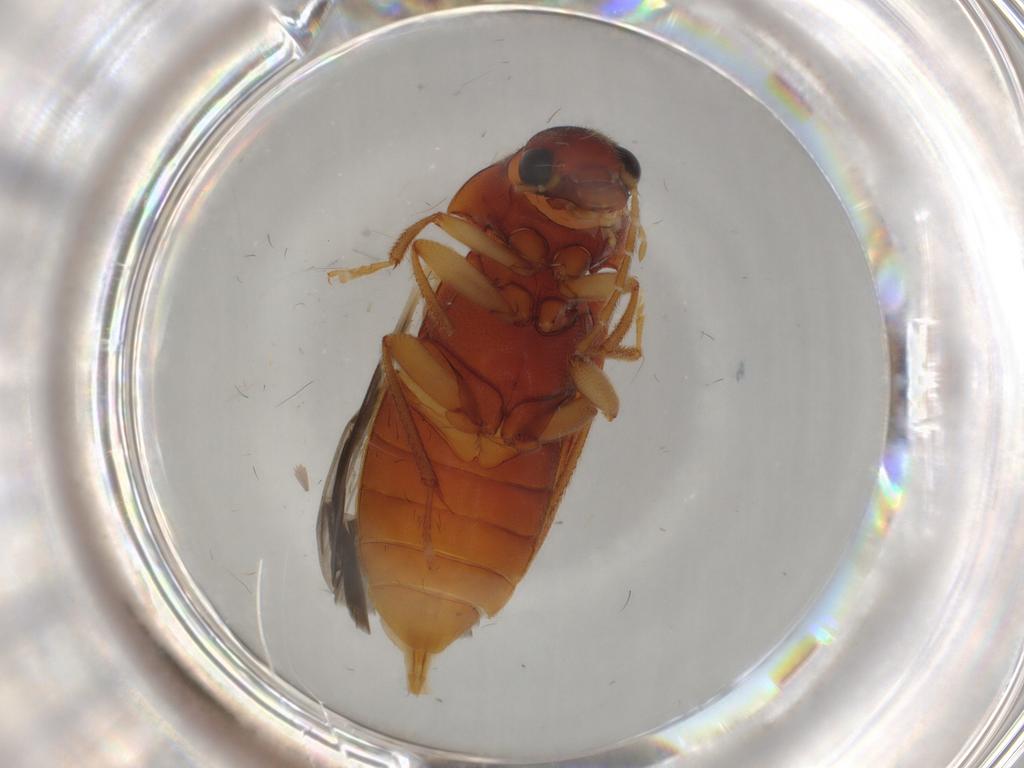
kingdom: Animalia
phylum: Arthropoda
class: Insecta
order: Coleoptera
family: Ptilodactylidae
